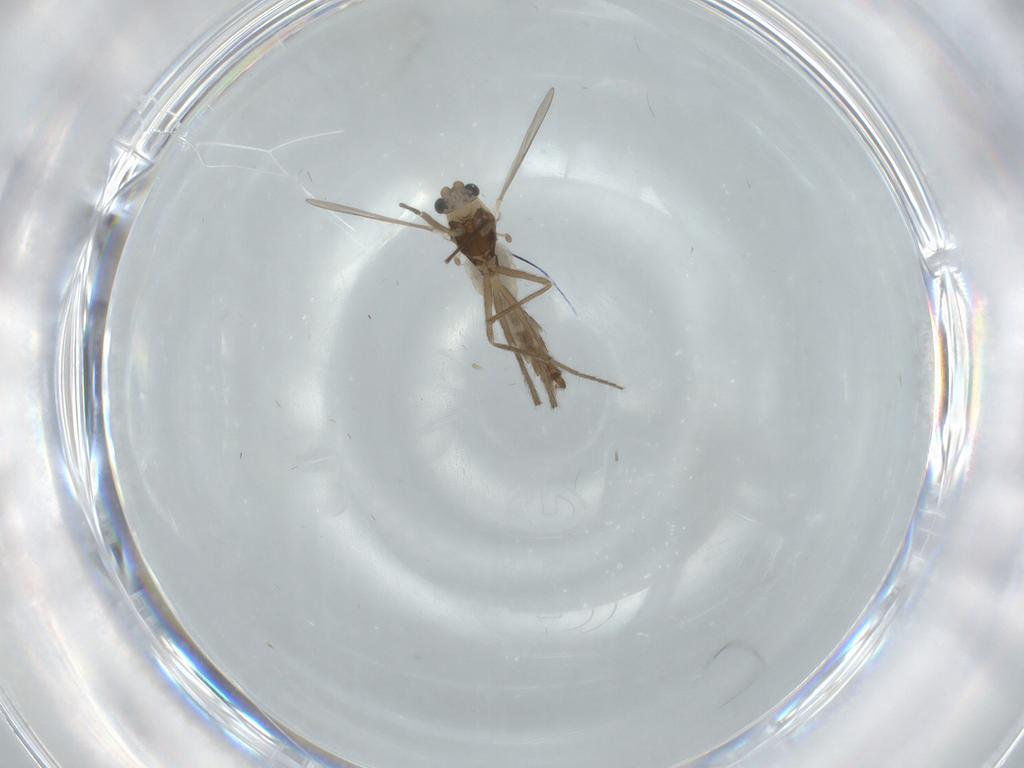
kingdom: Animalia
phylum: Arthropoda
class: Insecta
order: Diptera
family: Chironomidae
